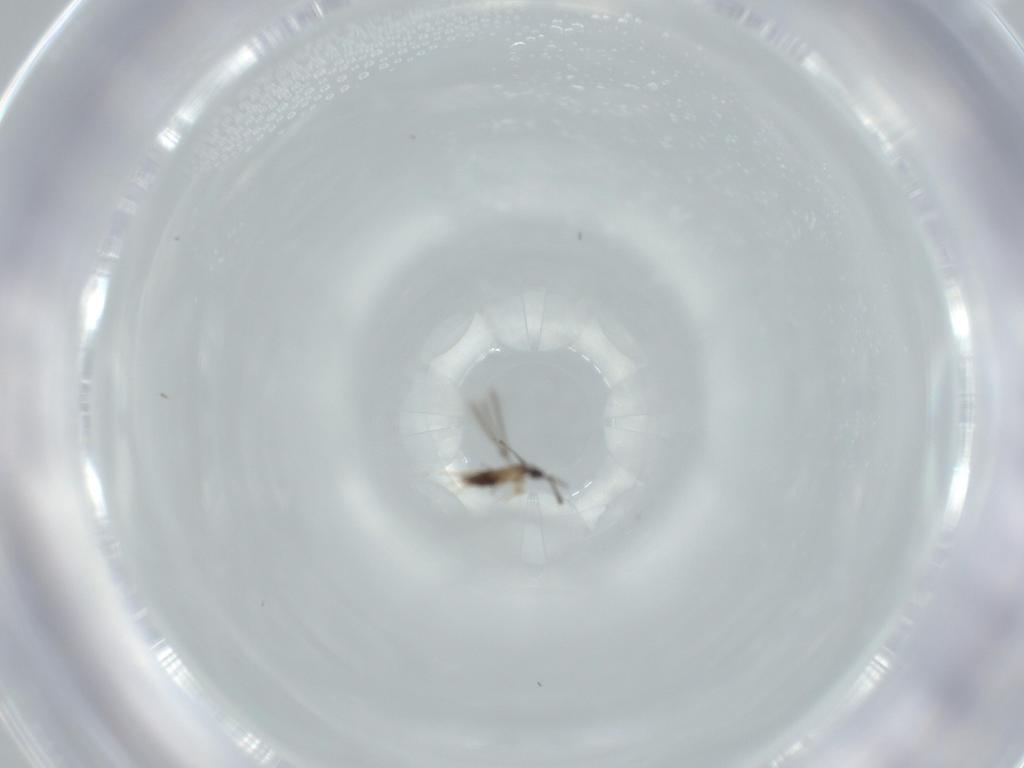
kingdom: Animalia
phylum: Arthropoda
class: Insecta
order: Hymenoptera
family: Mymaridae
